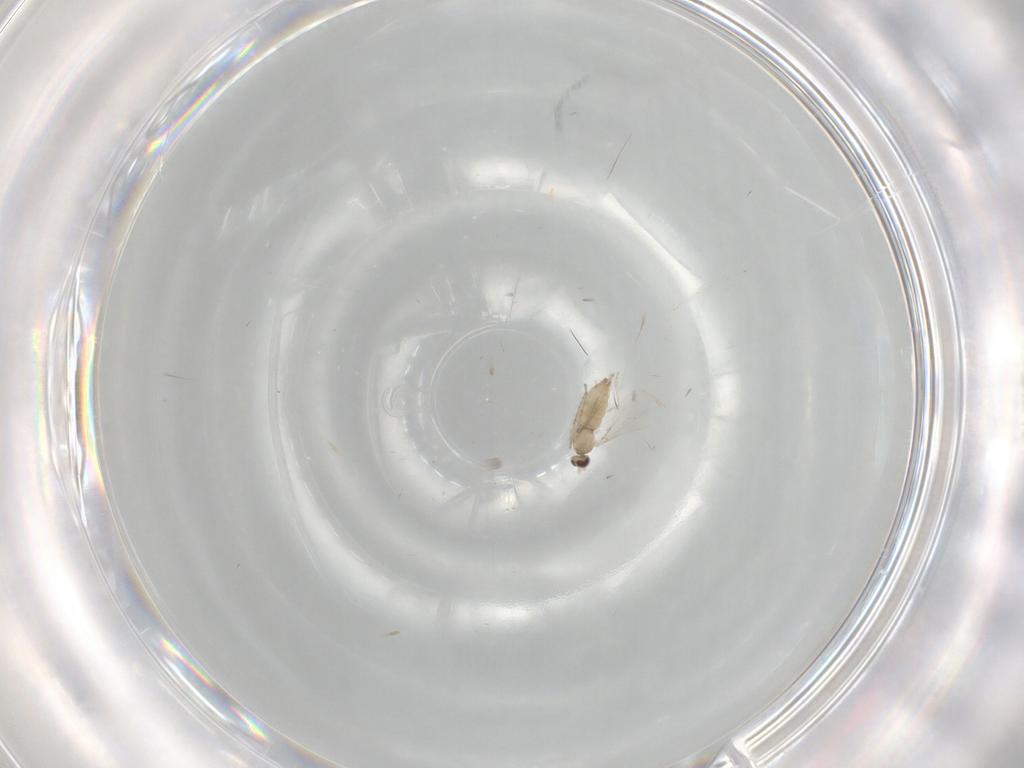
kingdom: Animalia
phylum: Arthropoda
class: Insecta
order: Diptera
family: Cecidomyiidae
